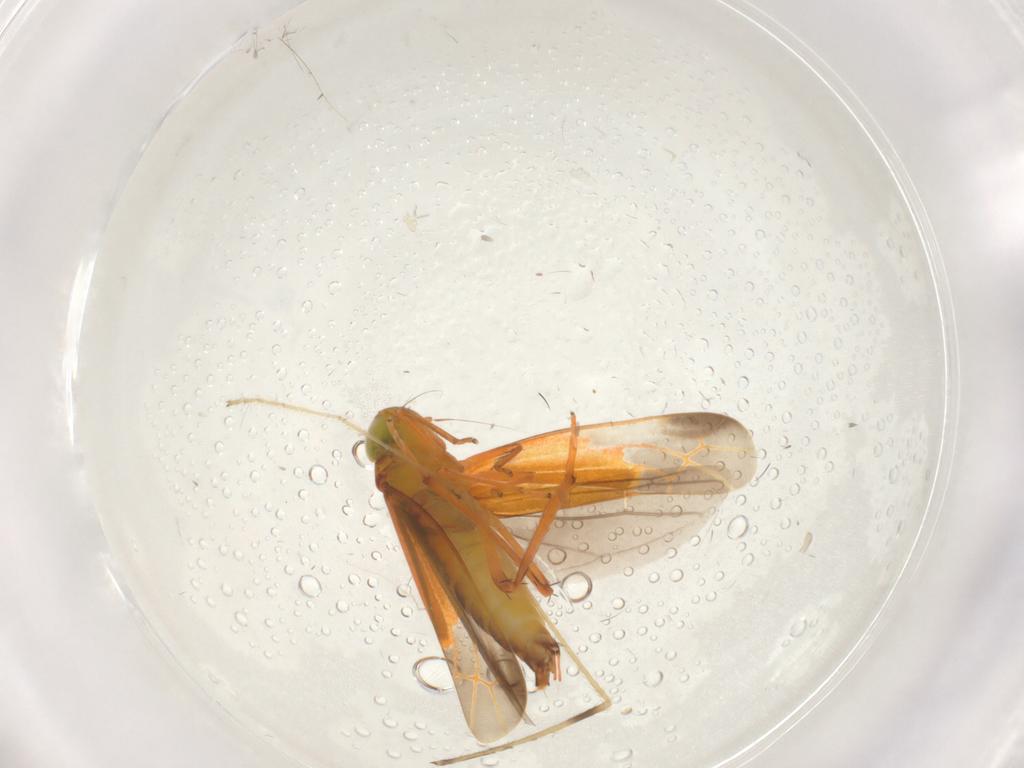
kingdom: Animalia
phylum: Arthropoda
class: Insecta
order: Hemiptera
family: Cicadellidae
